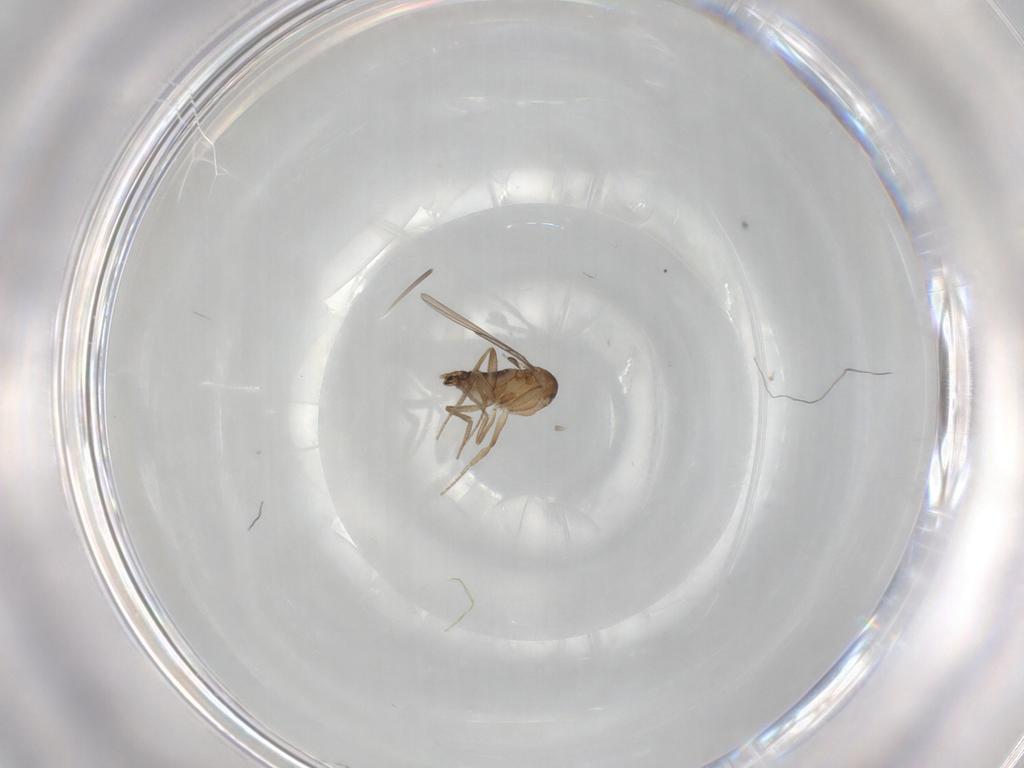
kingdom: Animalia
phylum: Arthropoda
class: Insecta
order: Diptera
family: Phoridae
